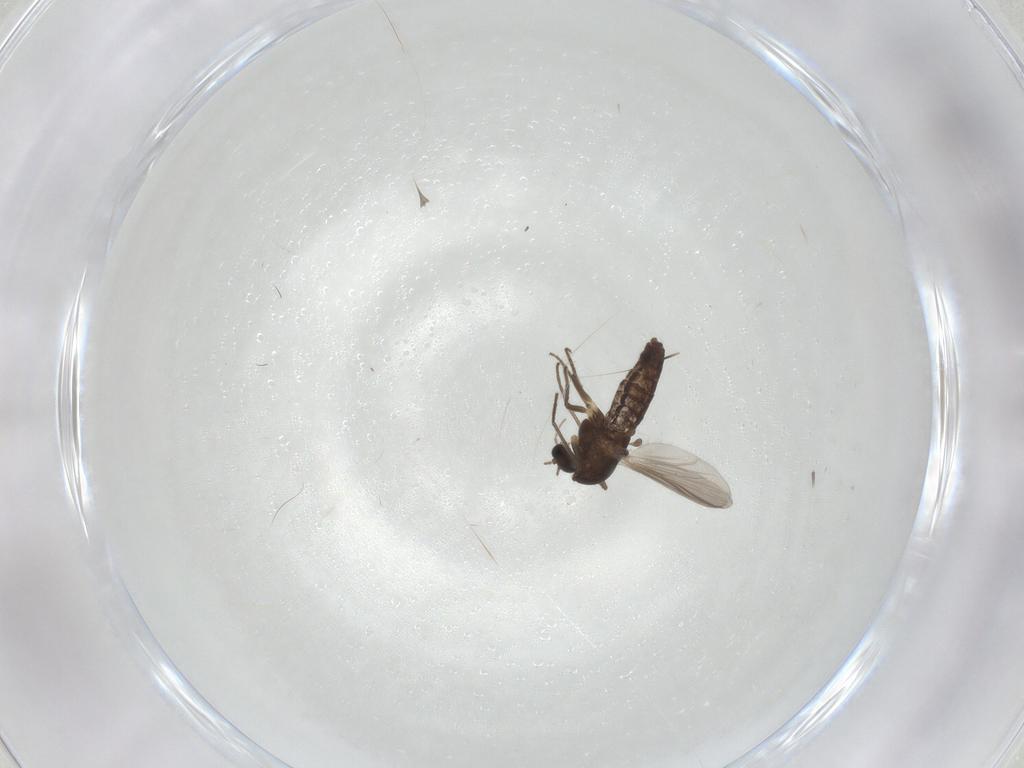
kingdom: Animalia
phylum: Arthropoda
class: Insecta
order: Diptera
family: Chironomidae
